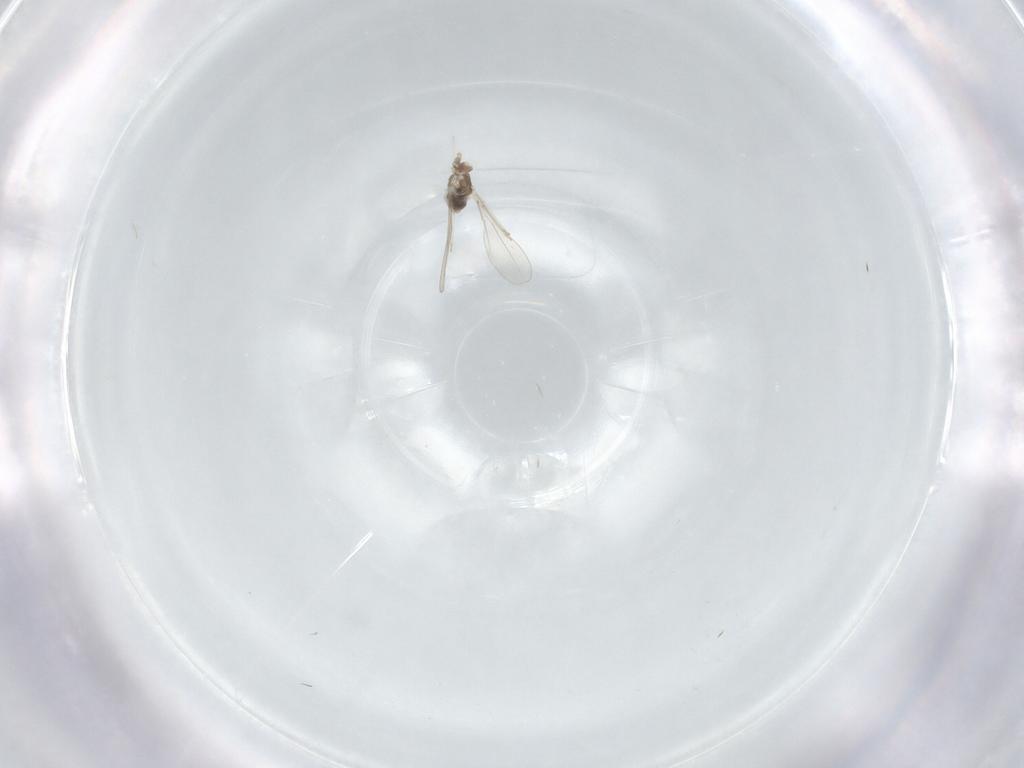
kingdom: Animalia
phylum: Arthropoda
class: Insecta
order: Diptera
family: Cecidomyiidae
